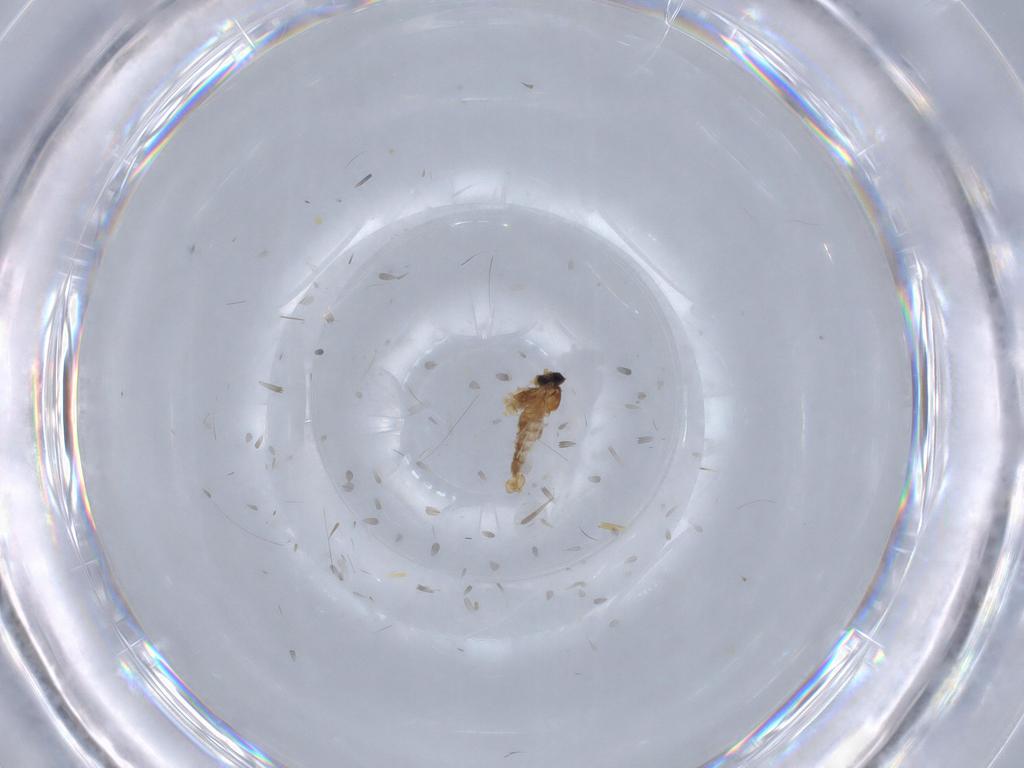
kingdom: Animalia
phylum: Arthropoda
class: Insecta
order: Diptera
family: Cecidomyiidae
